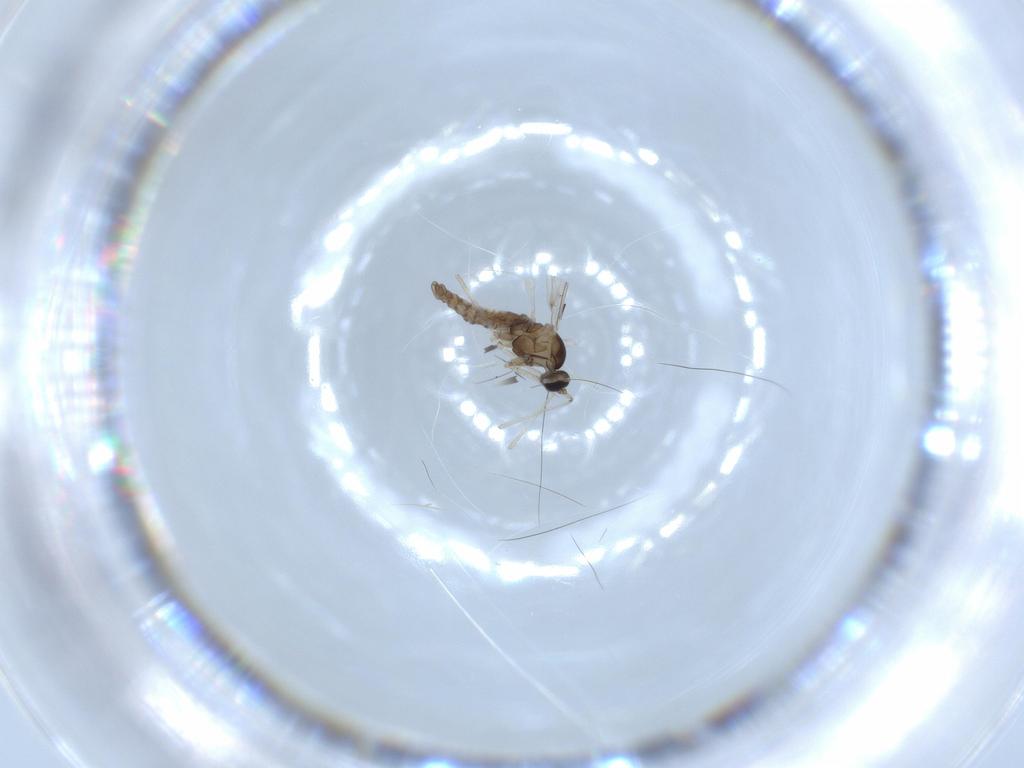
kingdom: Animalia
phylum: Arthropoda
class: Insecta
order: Diptera
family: Cecidomyiidae
